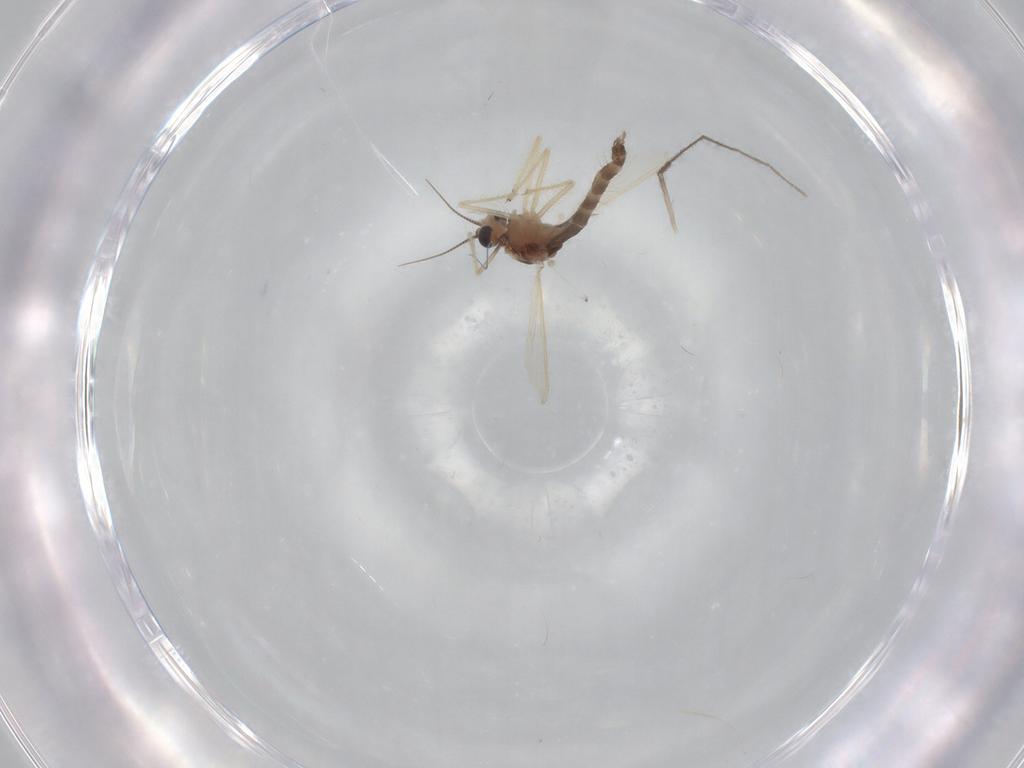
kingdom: Animalia
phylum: Arthropoda
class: Insecta
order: Diptera
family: Chironomidae
